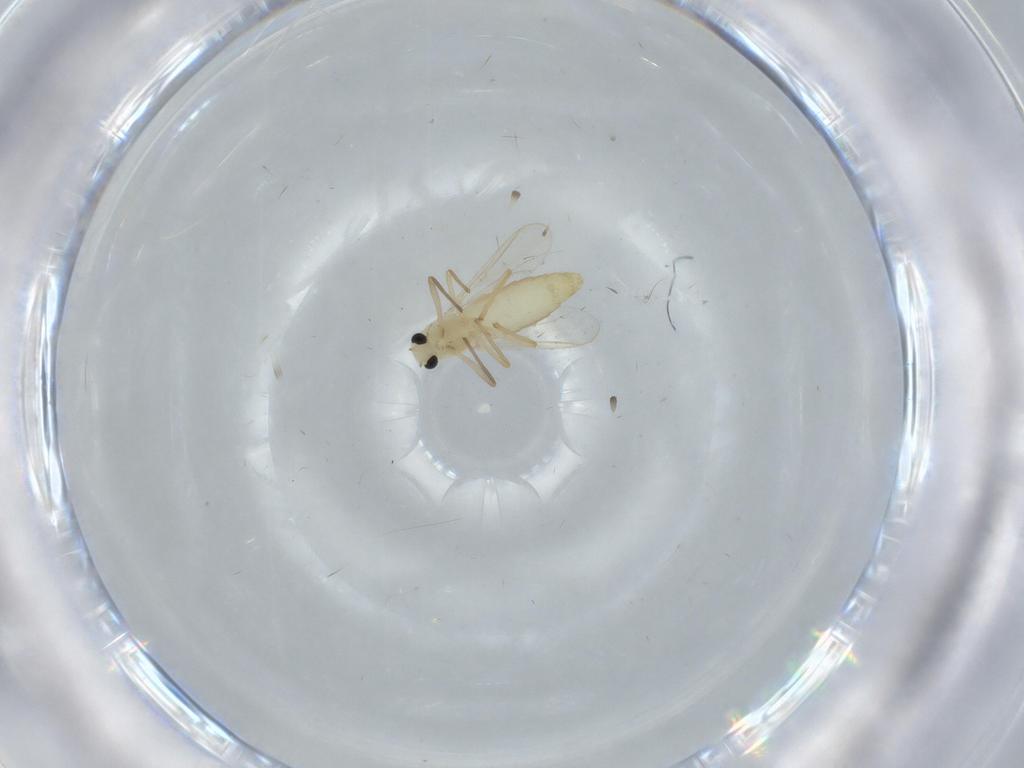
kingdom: Animalia
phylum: Arthropoda
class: Insecta
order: Diptera
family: Chironomidae
